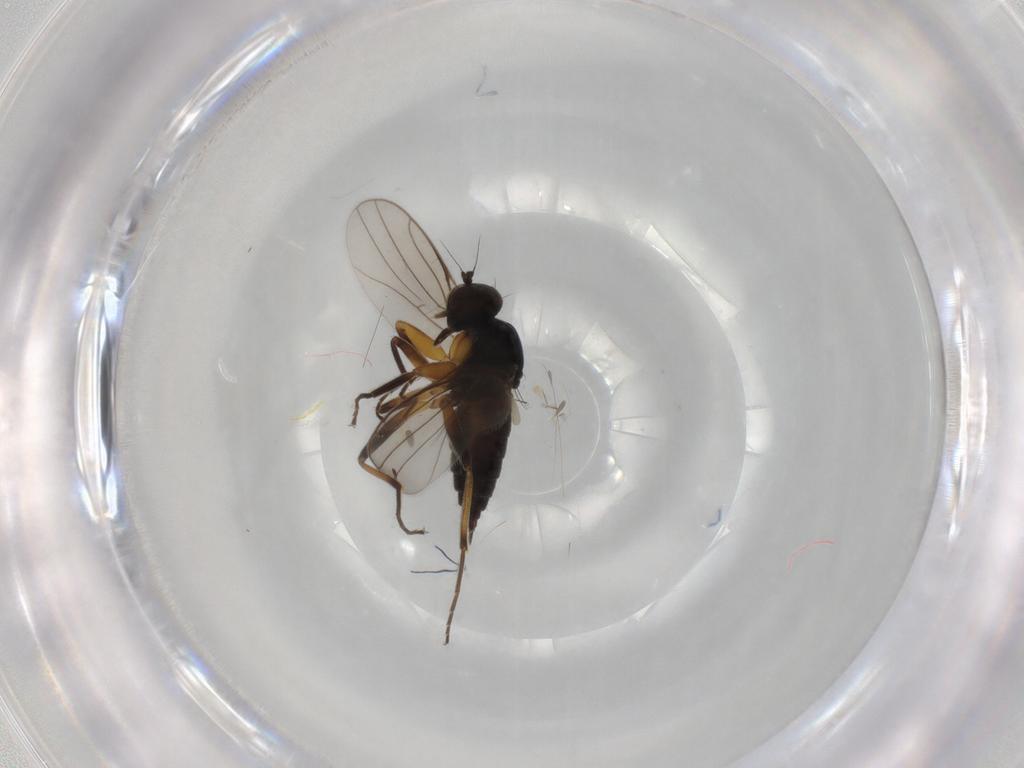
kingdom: Animalia
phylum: Arthropoda
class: Insecta
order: Diptera
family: Hybotidae
